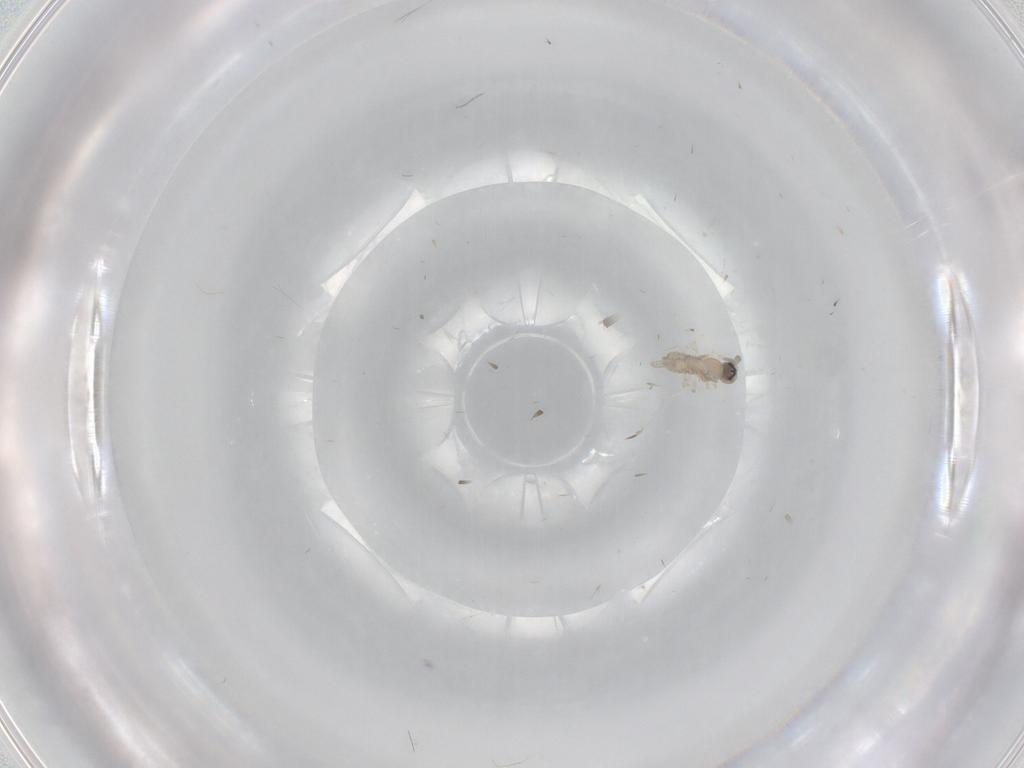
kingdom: Animalia
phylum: Arthropoda
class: Insecta
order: Diptera
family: Cecidomyiidae
